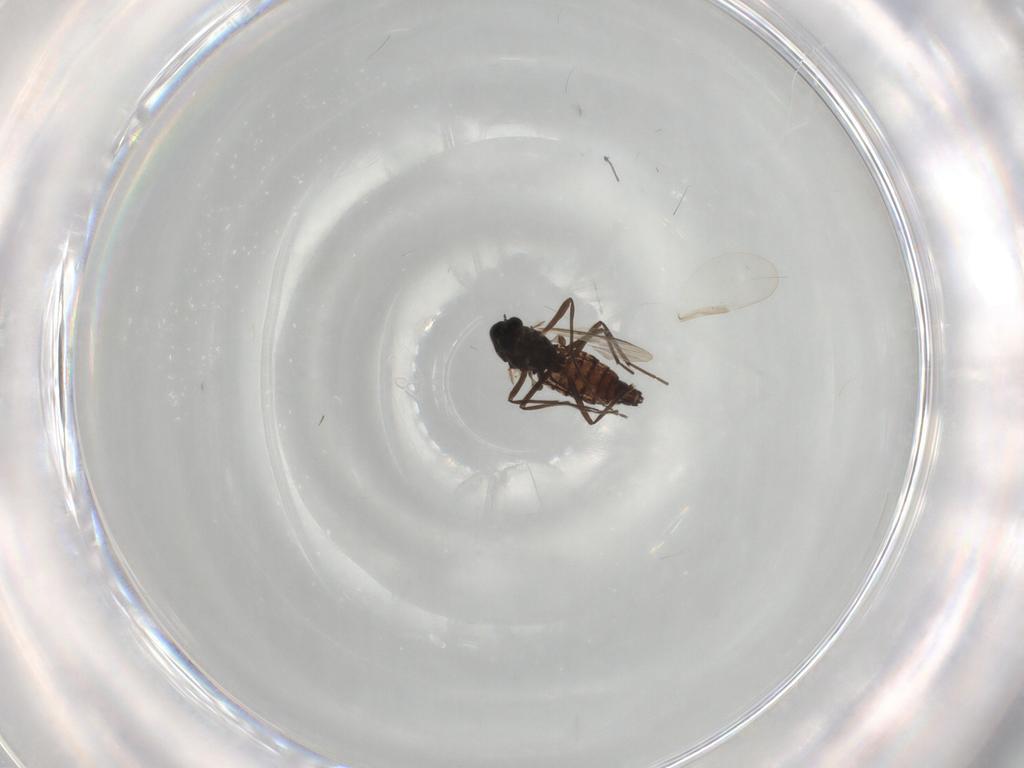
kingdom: Animalia
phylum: Arthropoda
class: Insecta
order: Diptera
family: Chironomidae
